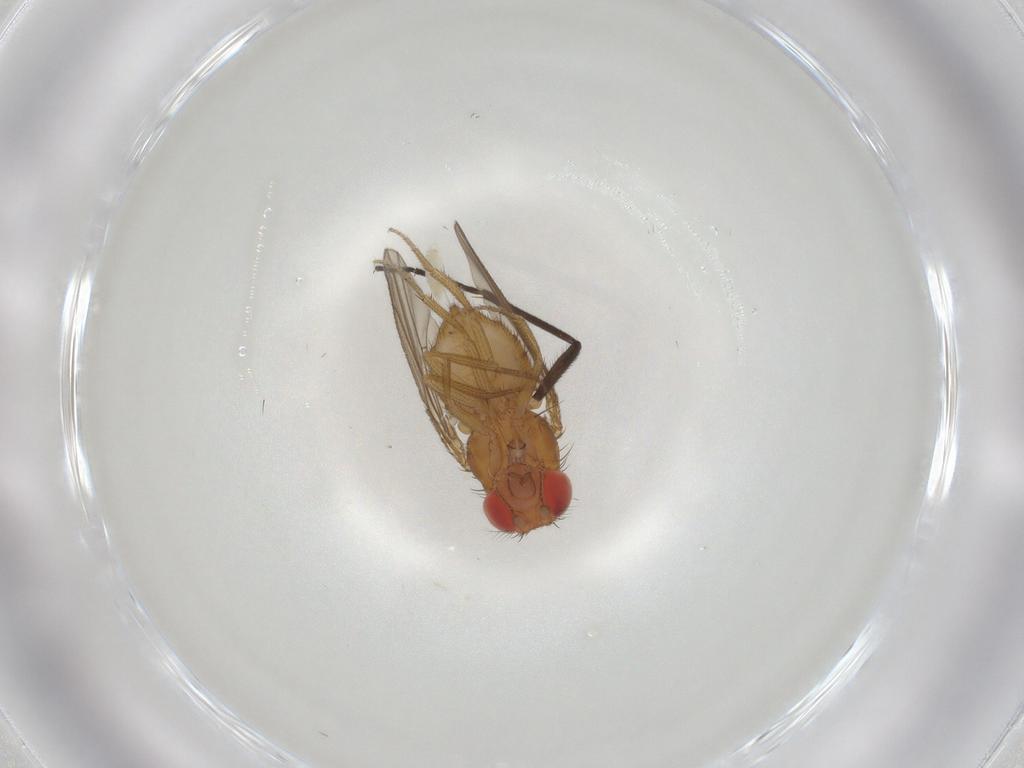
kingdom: Animalia
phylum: Arthropoda
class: Insecta
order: Diptera
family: Drosophilidae
